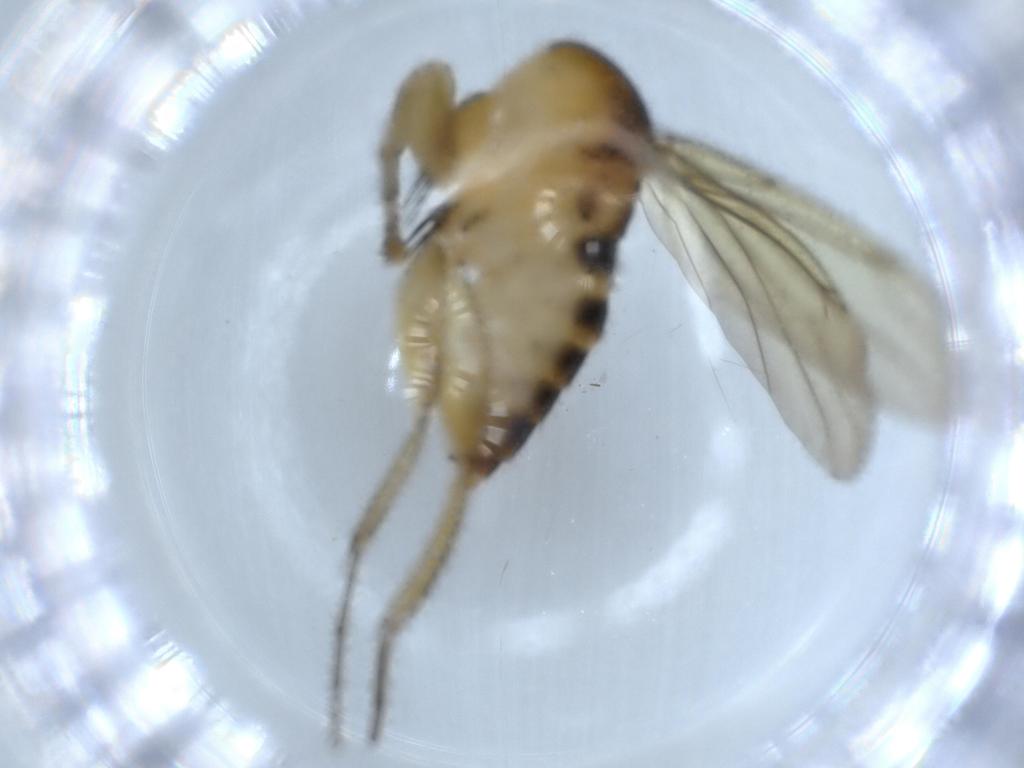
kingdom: Animalia
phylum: Arthropoda
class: Insecta
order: Diptera
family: Phoridae
